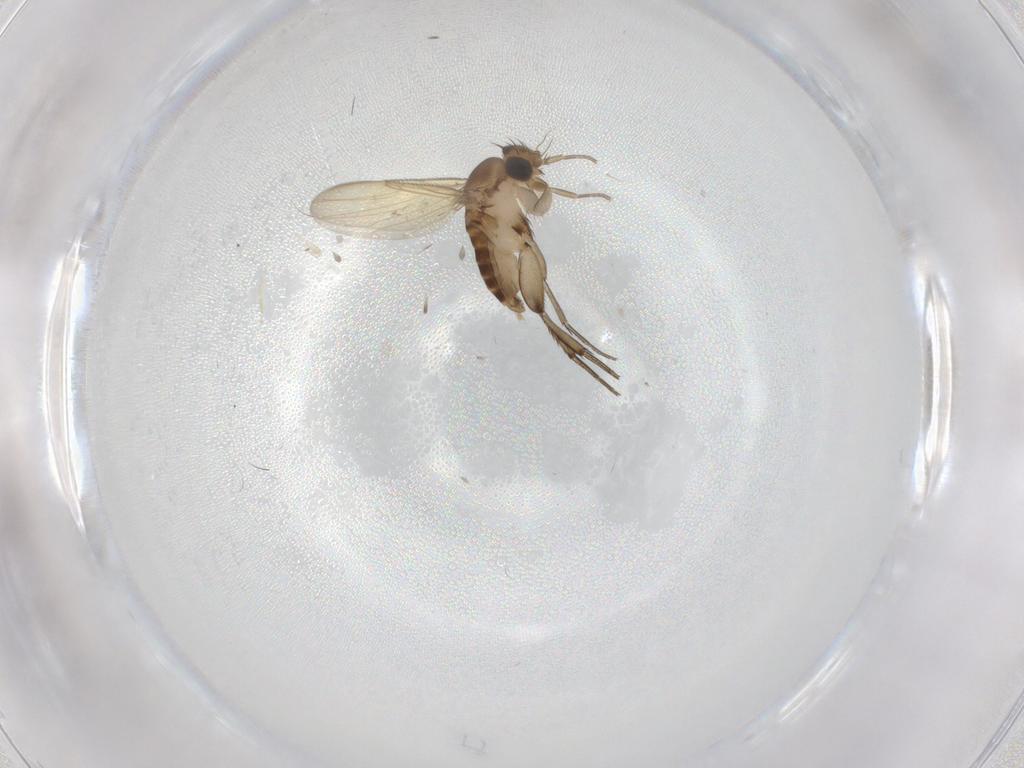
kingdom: Animalia
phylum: Arthropoda
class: Insecta
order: Diptera
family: Phoridae
